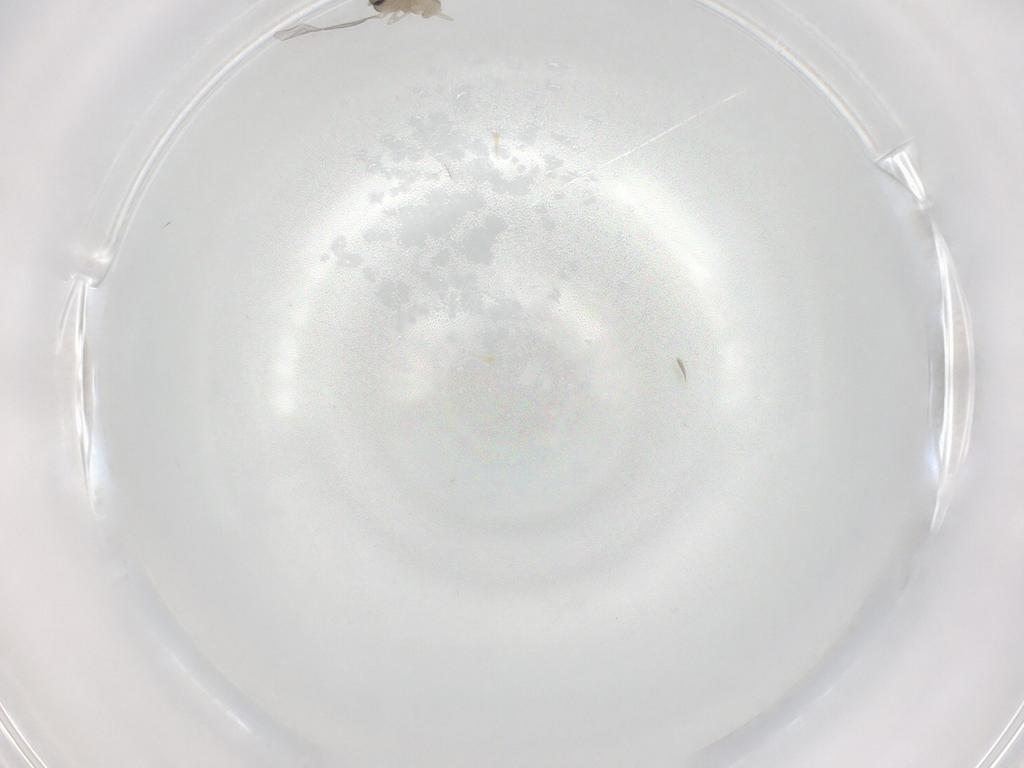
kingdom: Animalia
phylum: Arthropoda
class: Insecta
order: Diptera
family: Cecidomyiidae
